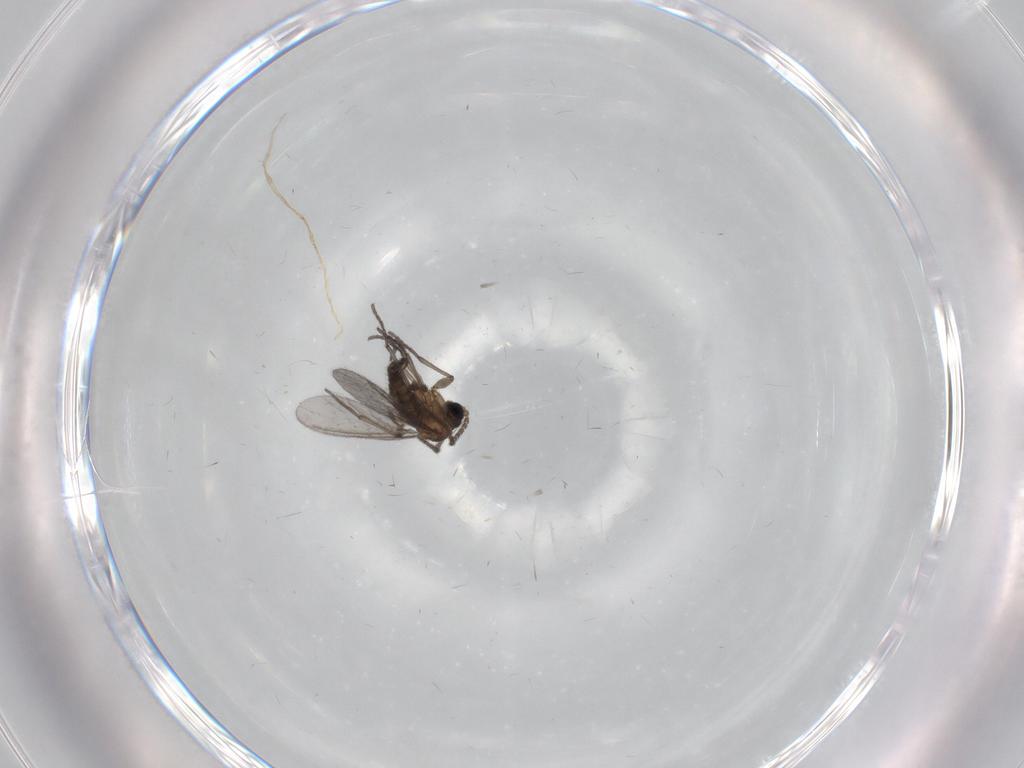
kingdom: Animalia
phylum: Arthropoda
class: Insecta
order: Diptera
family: Sciaridae
